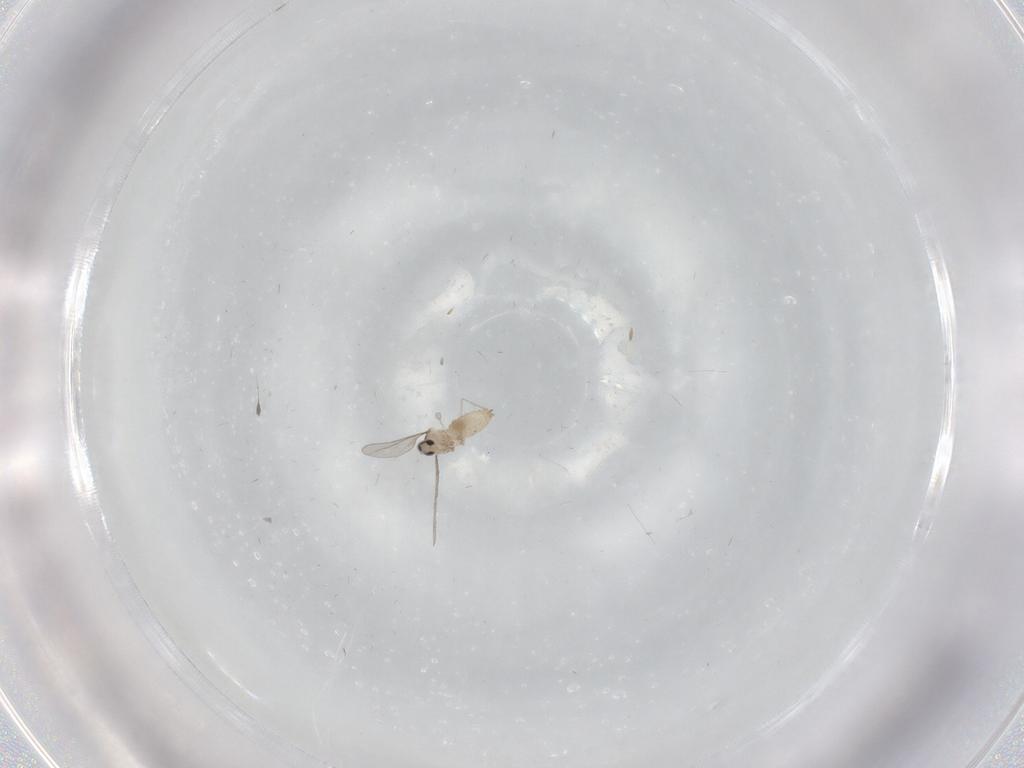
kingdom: Animalia
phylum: Arthropoda
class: Insecta
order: Diptera
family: Cecidomyiidae
